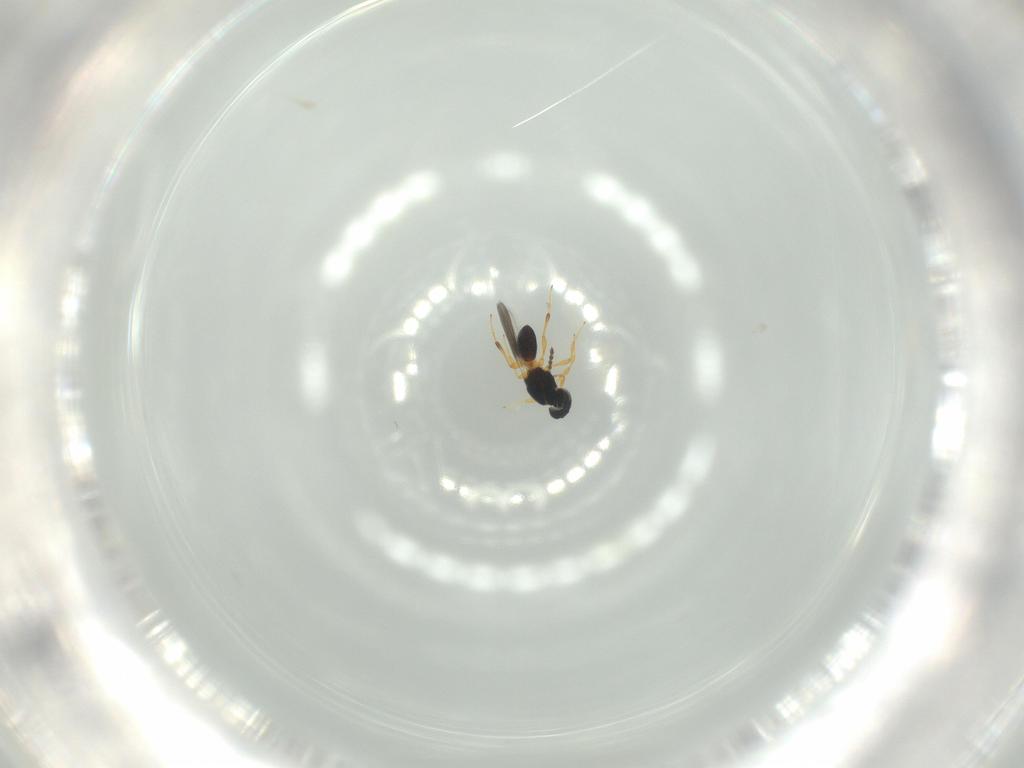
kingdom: Animalia
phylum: Arthropoda
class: Insecta
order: Hymenoptera
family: Platygastridae
